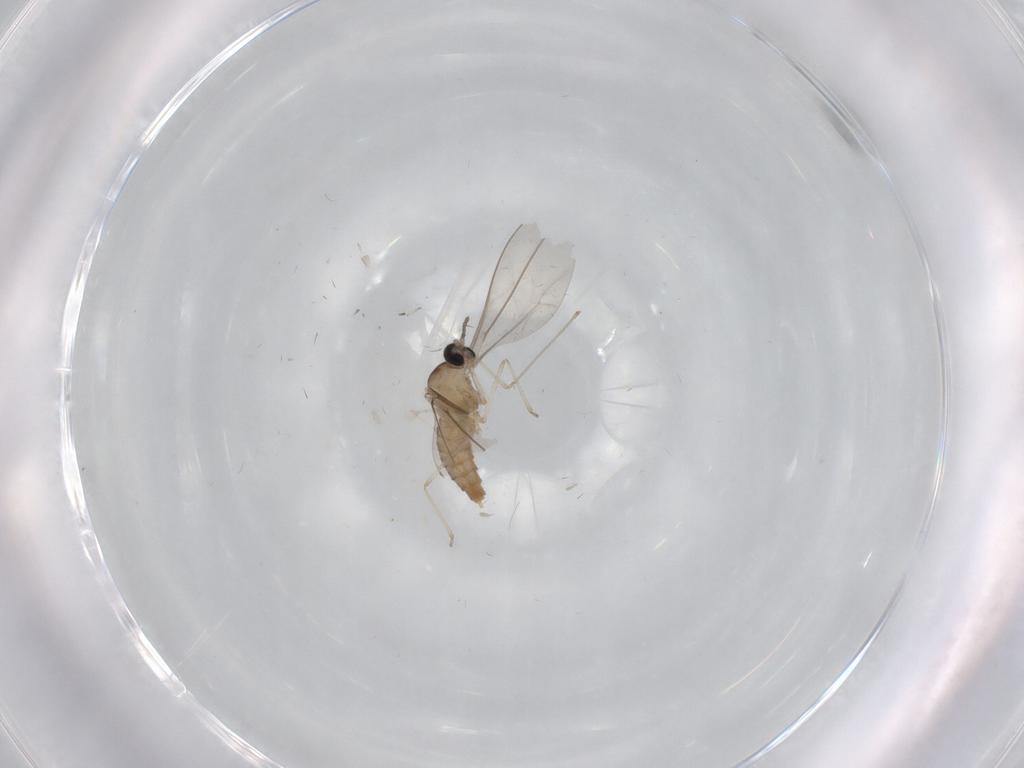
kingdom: Animalia
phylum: Arthropoda
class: Insecta
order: Diptera
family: Cecidomyiidae
